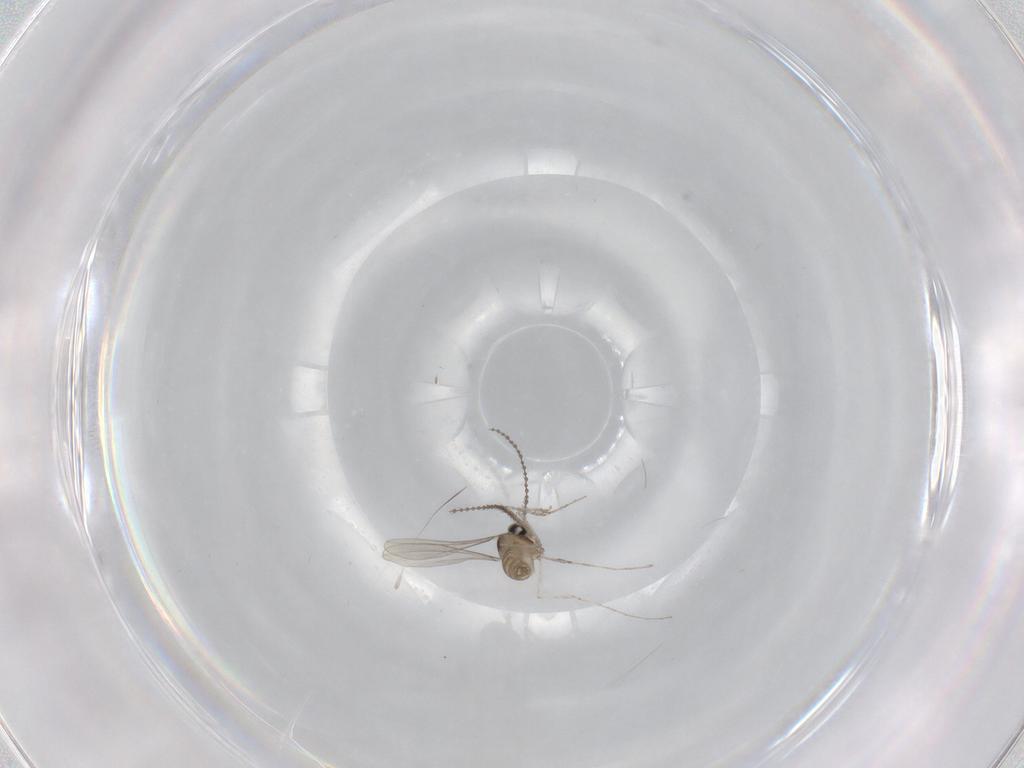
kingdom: Animalia
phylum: Arthropoda
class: Insecta
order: Diptera
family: Cecidomyiidae
